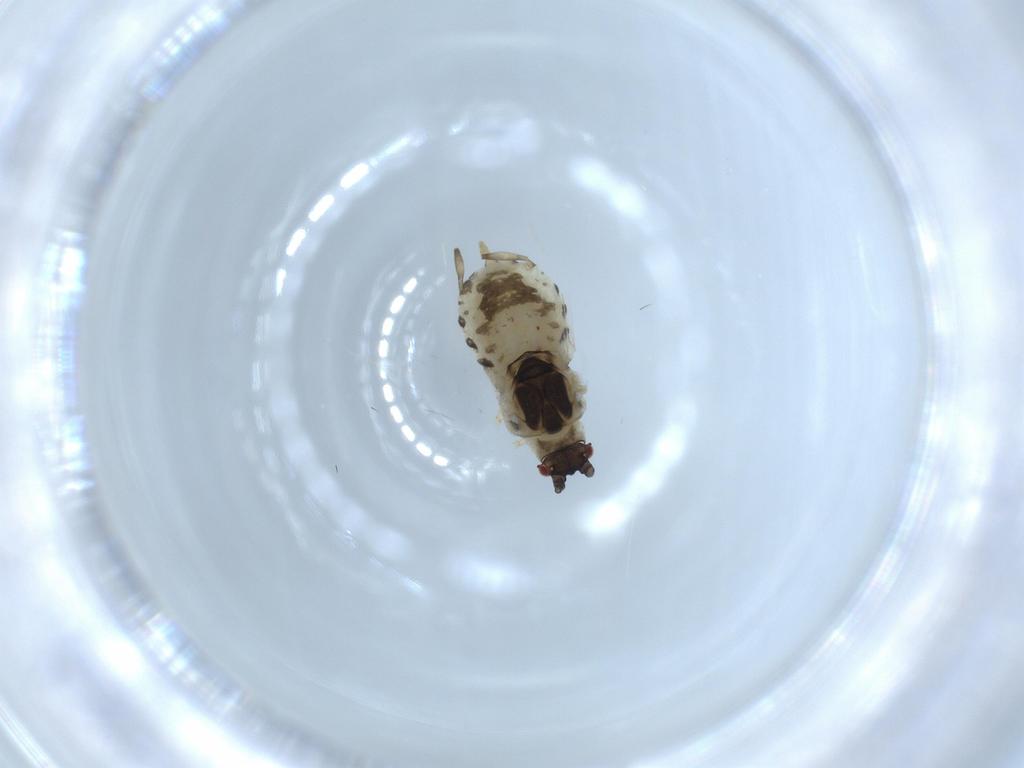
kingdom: Animalia
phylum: Arthropoda
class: Insecta
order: Hemiptera
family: Aphididae
